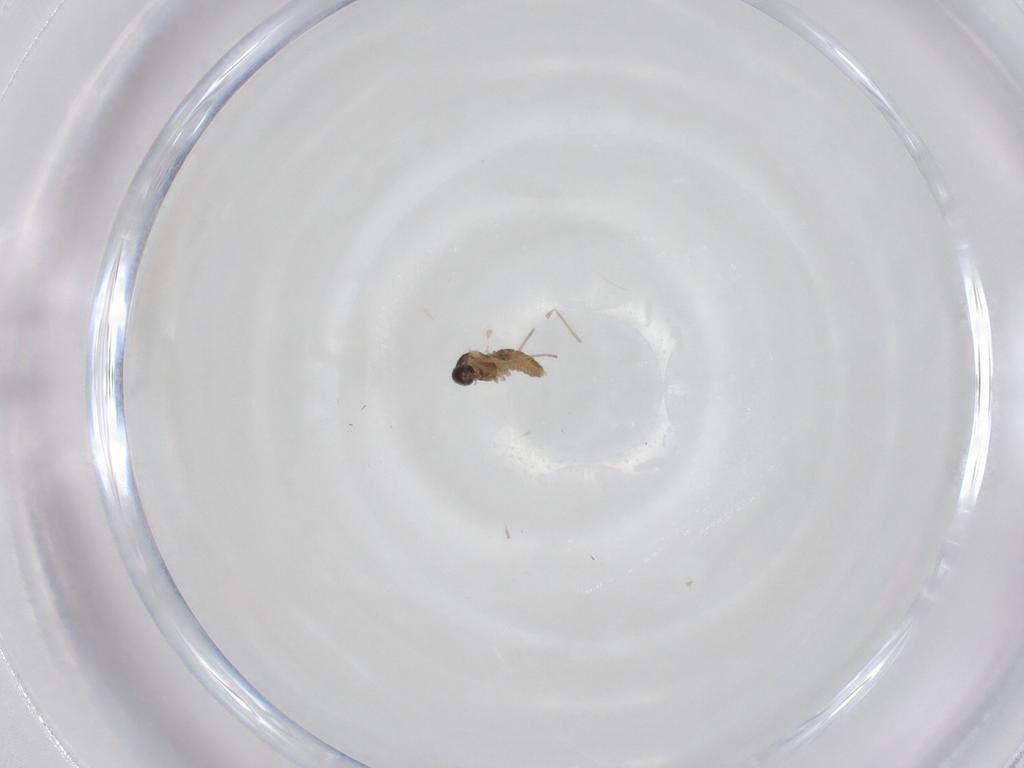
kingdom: Animalia
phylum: Arthropoda
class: Insecta
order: Diptera
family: Cecidomyiidae
